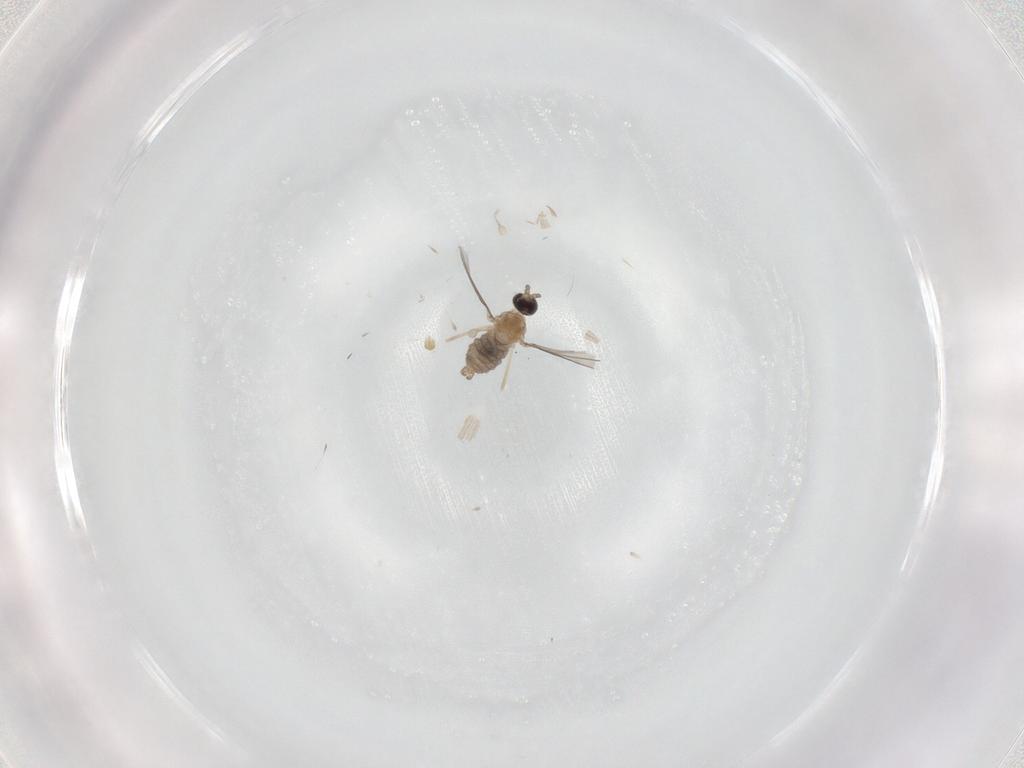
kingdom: Animalia
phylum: Arthropoda
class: Insecta
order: Diptera
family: Cecidomyiidae
